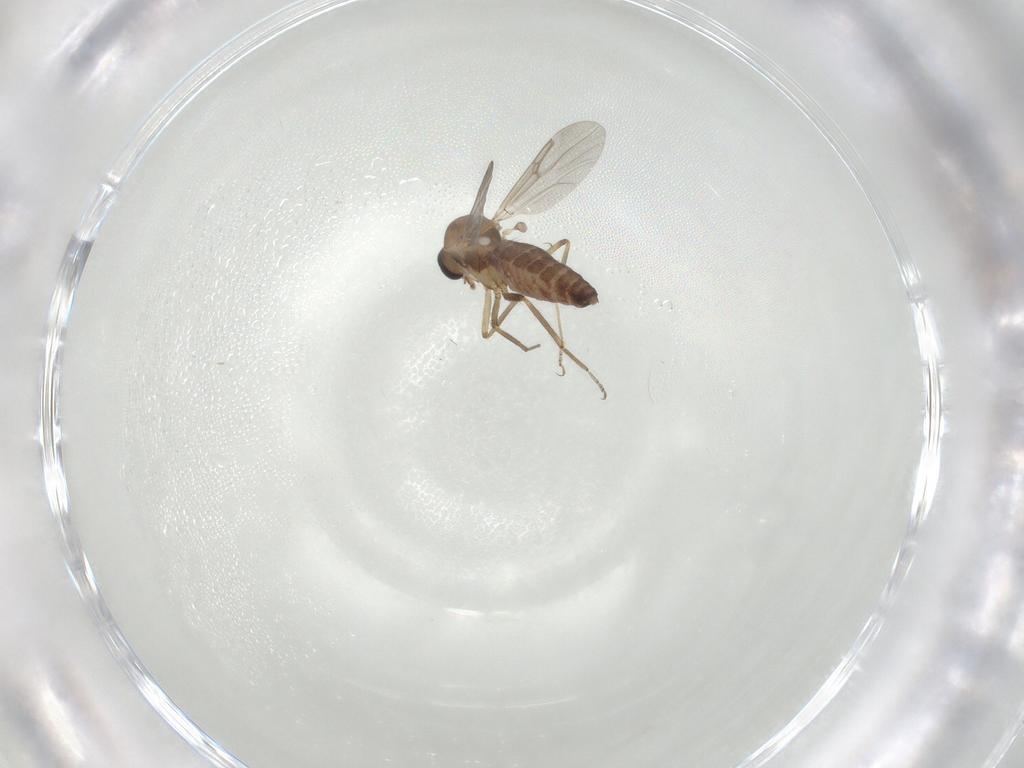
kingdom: Animalia
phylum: Arthropoda
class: Insecta
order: Diptera
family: Ceratopogonidae
